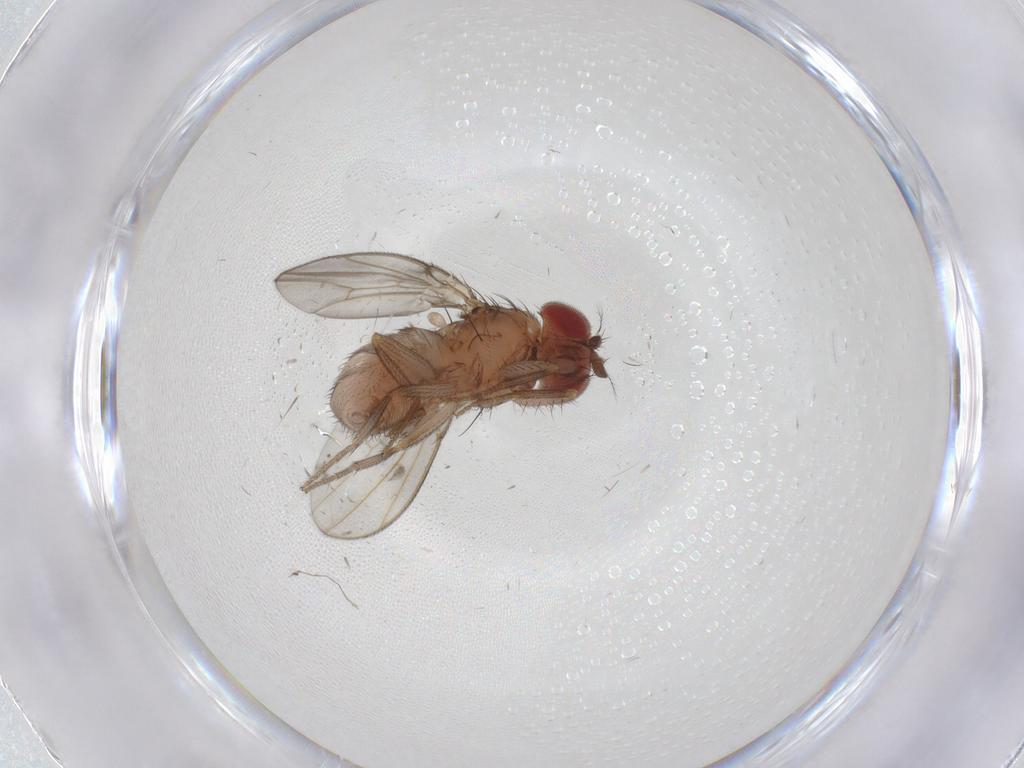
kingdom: Animalia
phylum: Arthropoda
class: Insecta
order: Diptera
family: Drosophilidae
